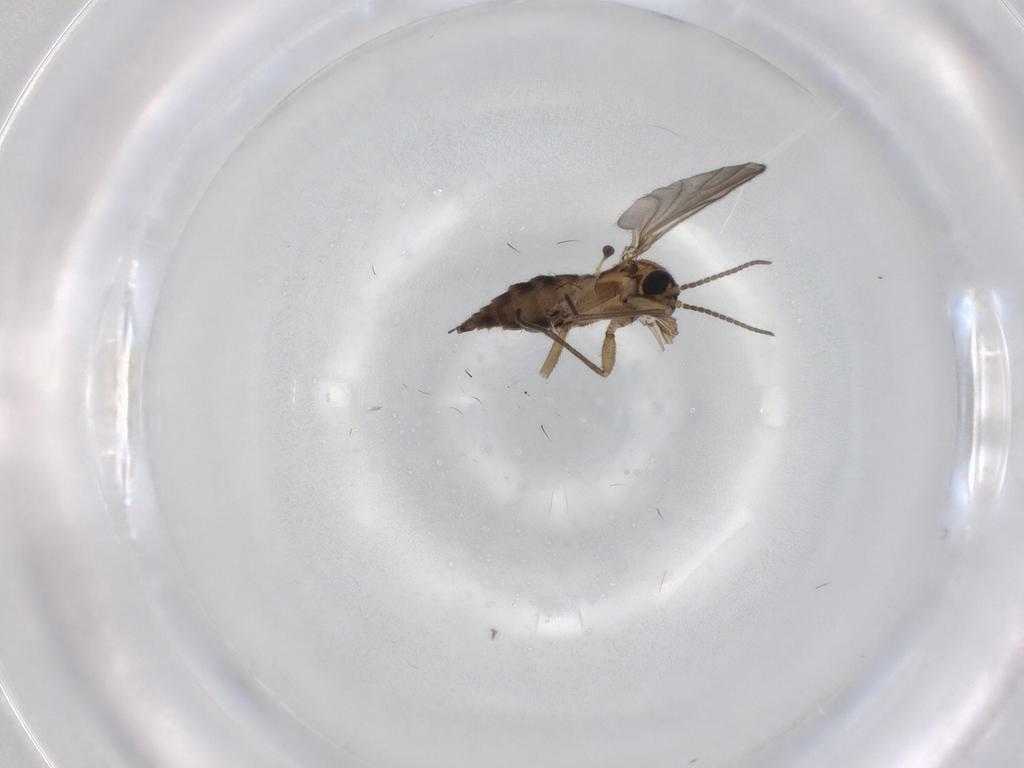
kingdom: Animalia
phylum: Arthropoda
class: Insecta
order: Diptera
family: Sciaridae
